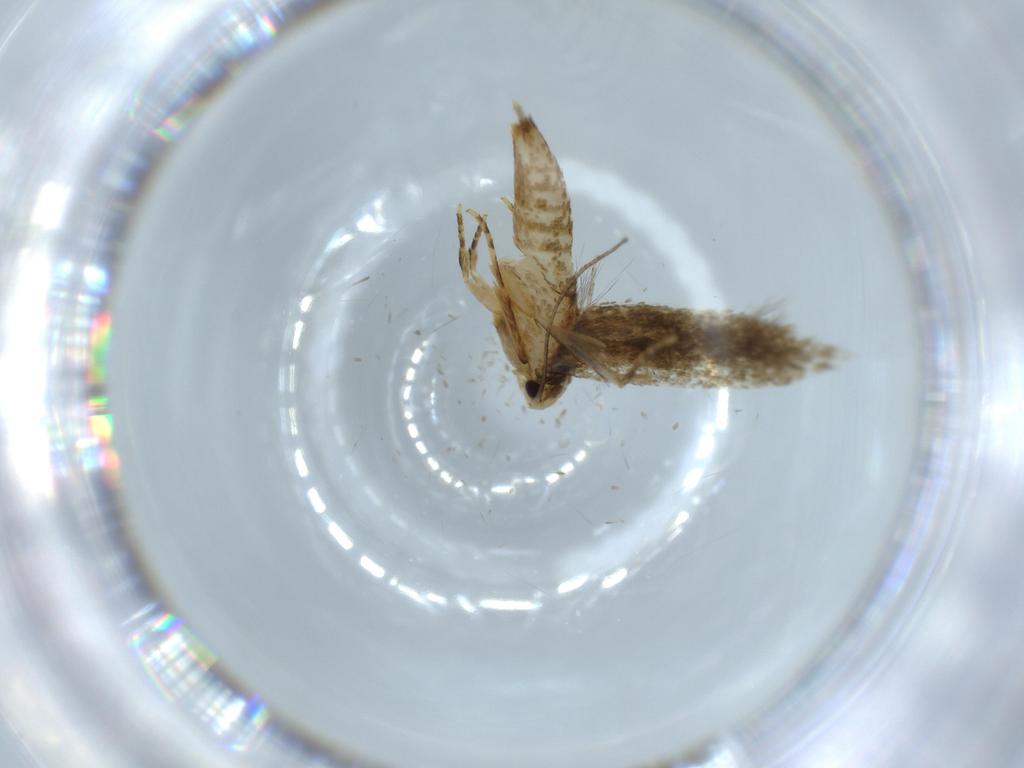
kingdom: Animalia
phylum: Arthropoda
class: Insecta
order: Lepidoptera
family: Tineidae
